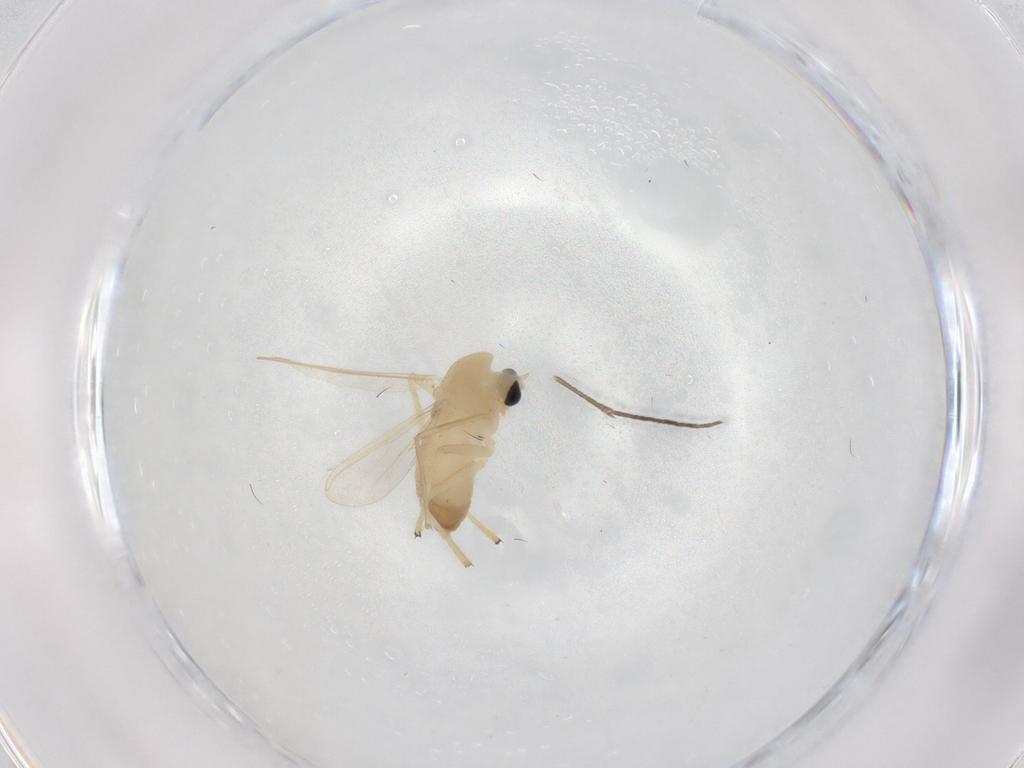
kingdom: Animalia
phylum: Arthropoda
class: Insecta
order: Diptera
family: Chironomidae
